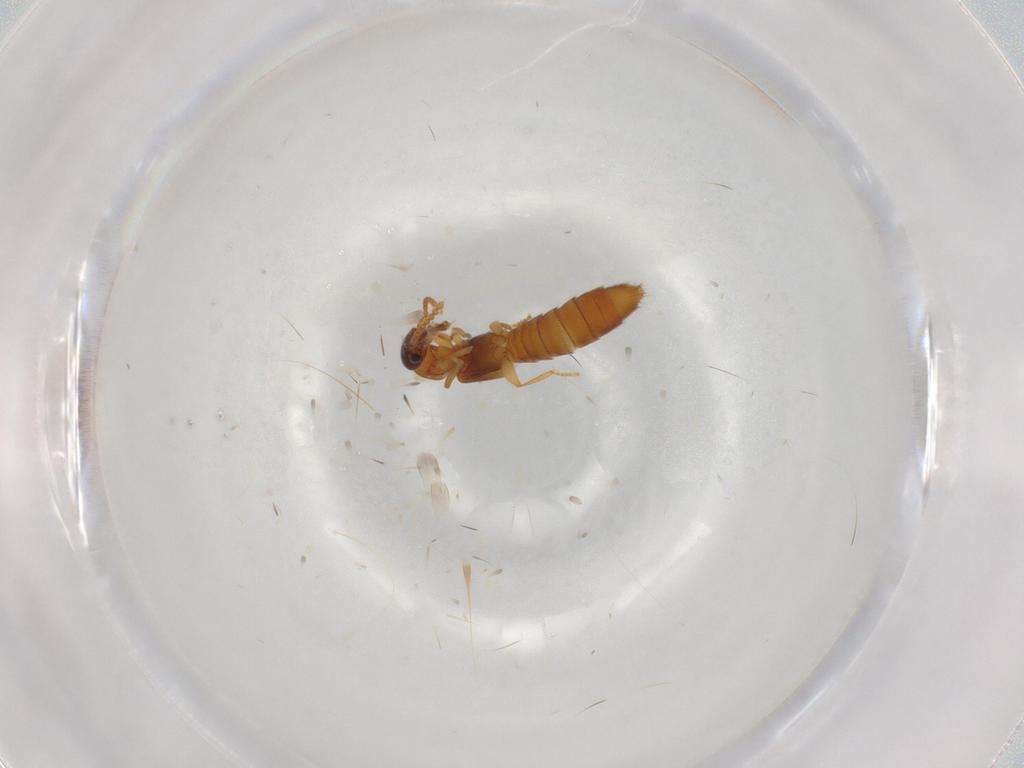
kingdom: Animalia
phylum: Arthropoda
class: Insecta
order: Coleoptera
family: Staphylinidae
